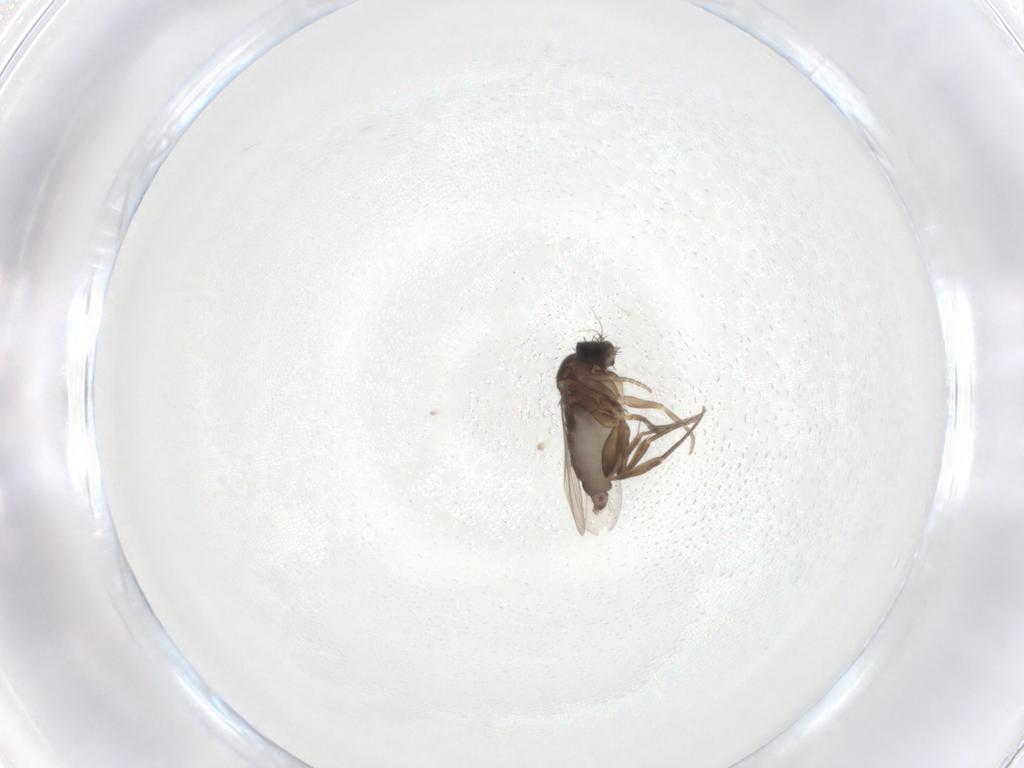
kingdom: Animalia
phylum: Arthropoda
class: Insecta
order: Diptera
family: Phoridae
